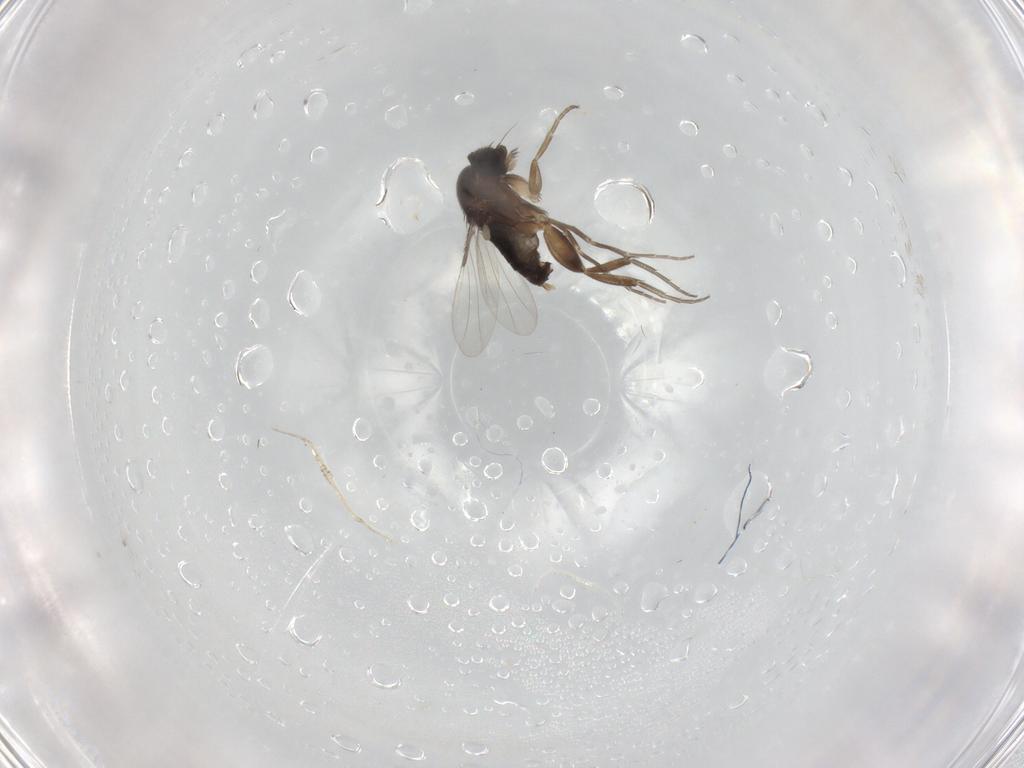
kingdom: Animalia
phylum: Arthropoda
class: Insecta
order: Diptera
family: Phoridae
